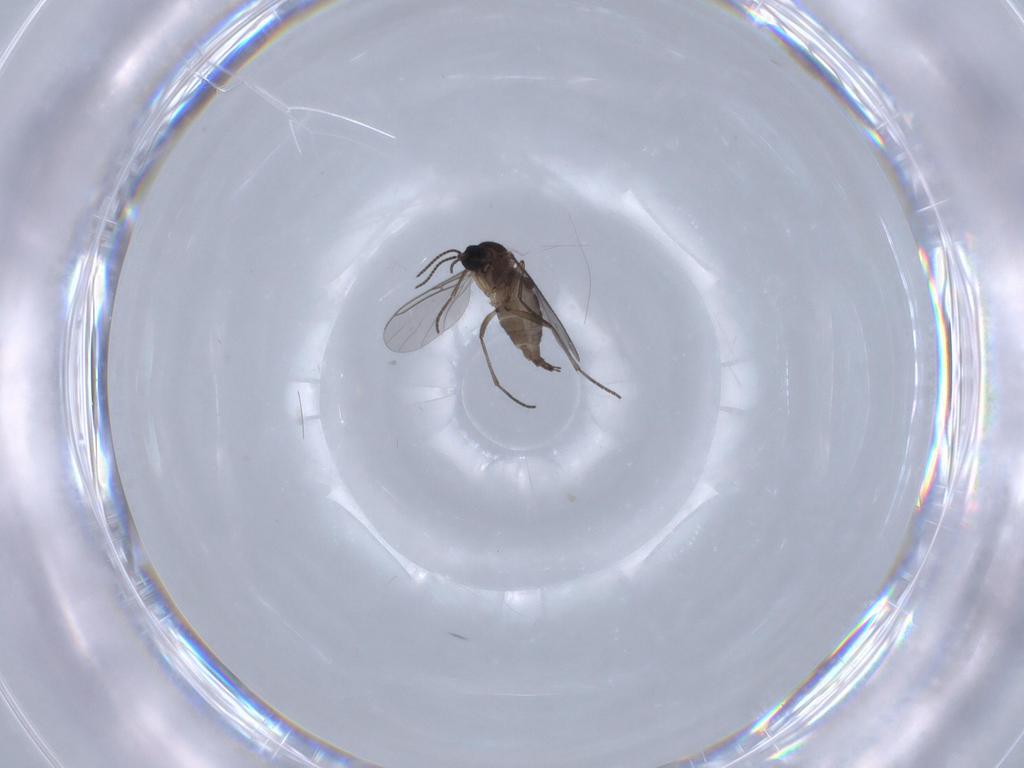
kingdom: Animalia
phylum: Arthropoda
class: Insecta
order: Diptera
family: Sciaridae
